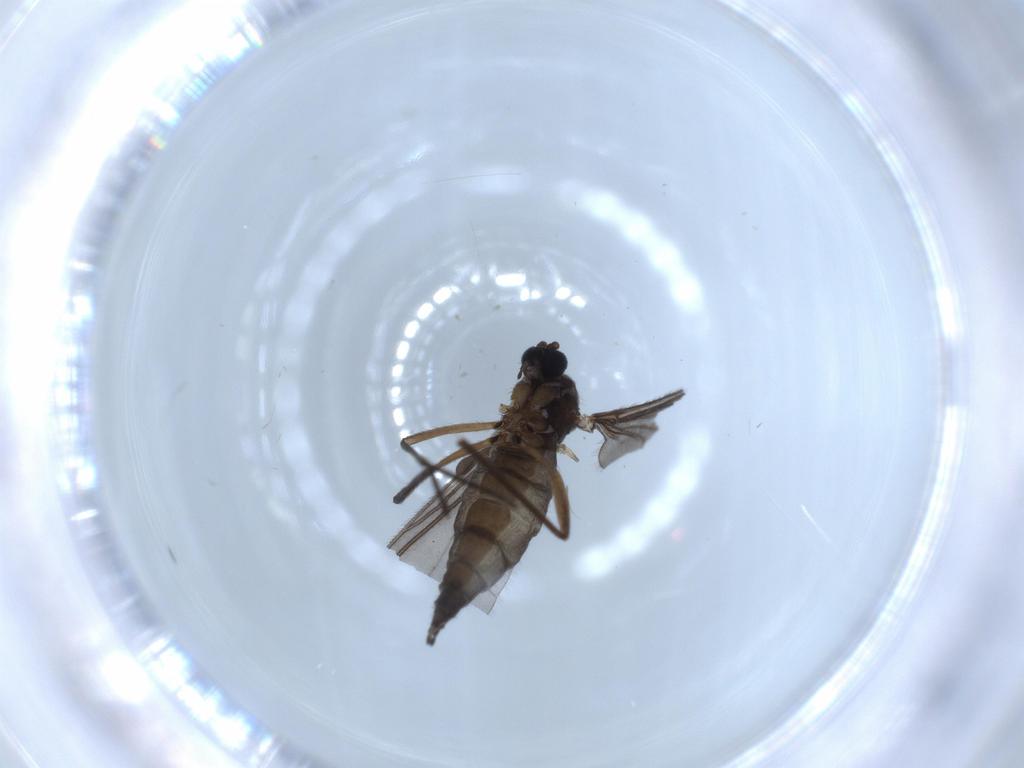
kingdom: Animalia
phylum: Arthropoda
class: Insecta
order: Diptera
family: Sciaridae
